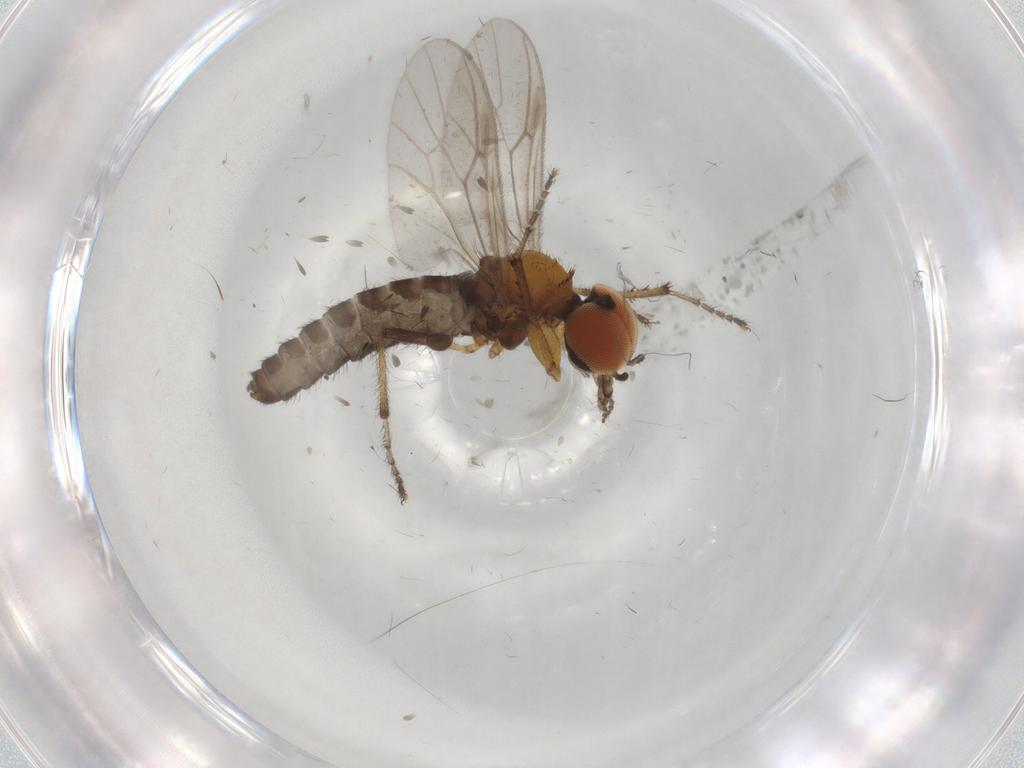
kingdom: Animalia
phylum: Arthropoda
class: Insecta
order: Diptera
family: Bibionidae
